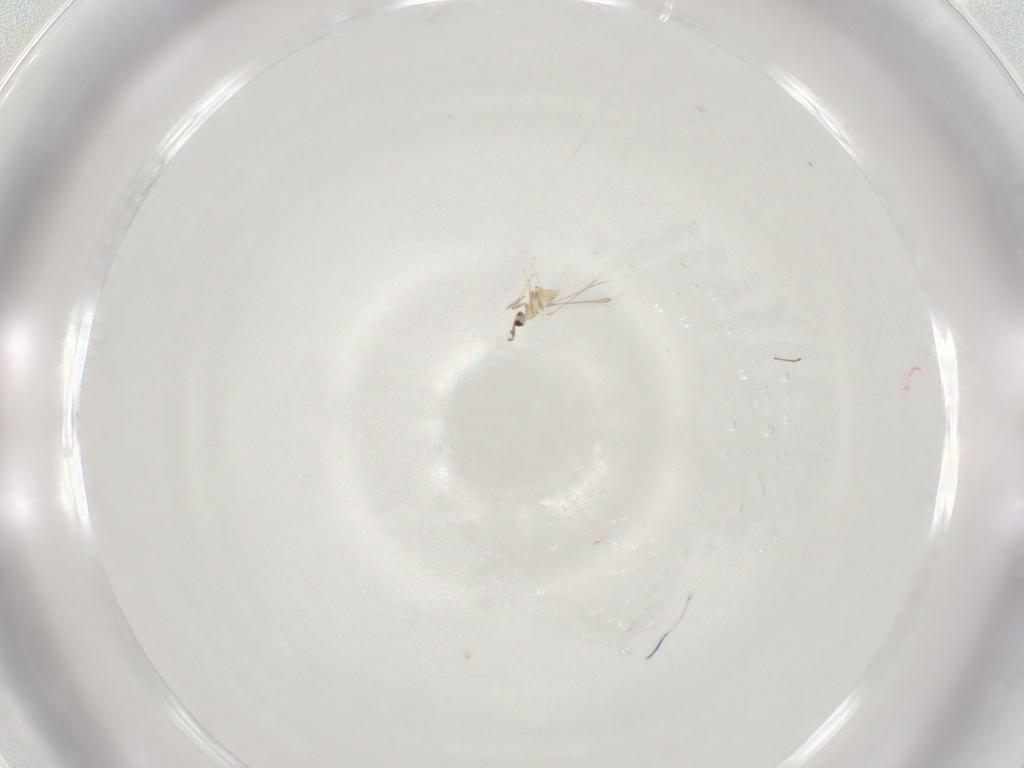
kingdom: Animalia
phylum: Arthropoda
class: Insecta
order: Hymenoptera
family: Mymaridae
